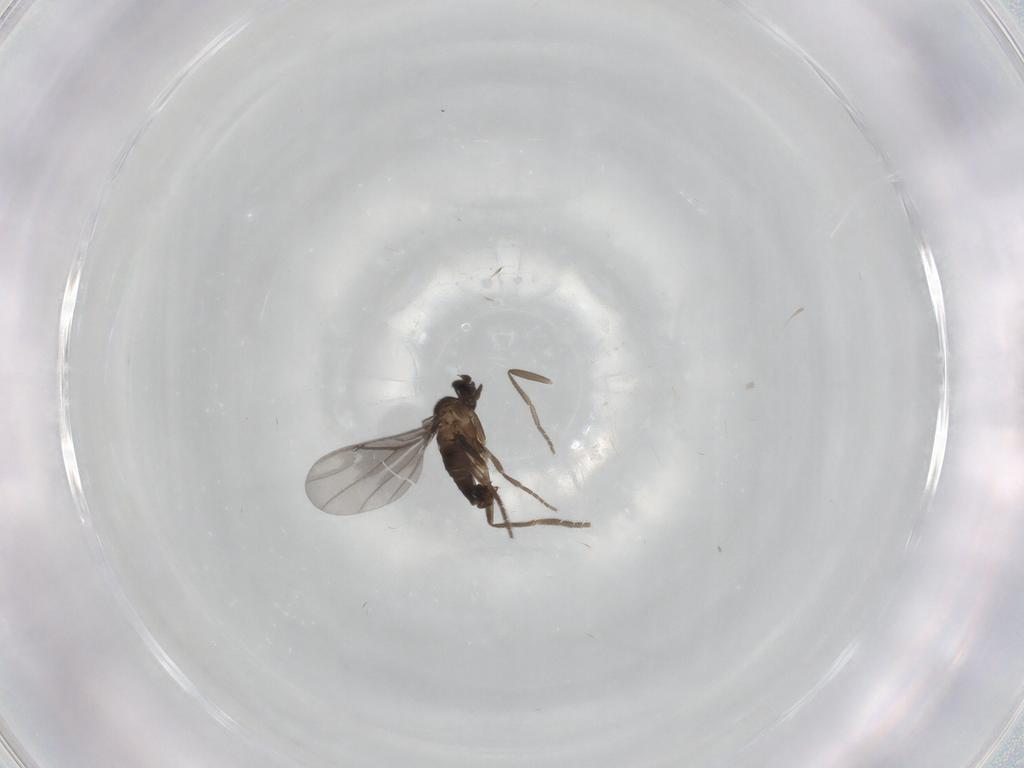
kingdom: Animalia
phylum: Arthropoda
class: Insecta
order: Diptera
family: Phoridae
